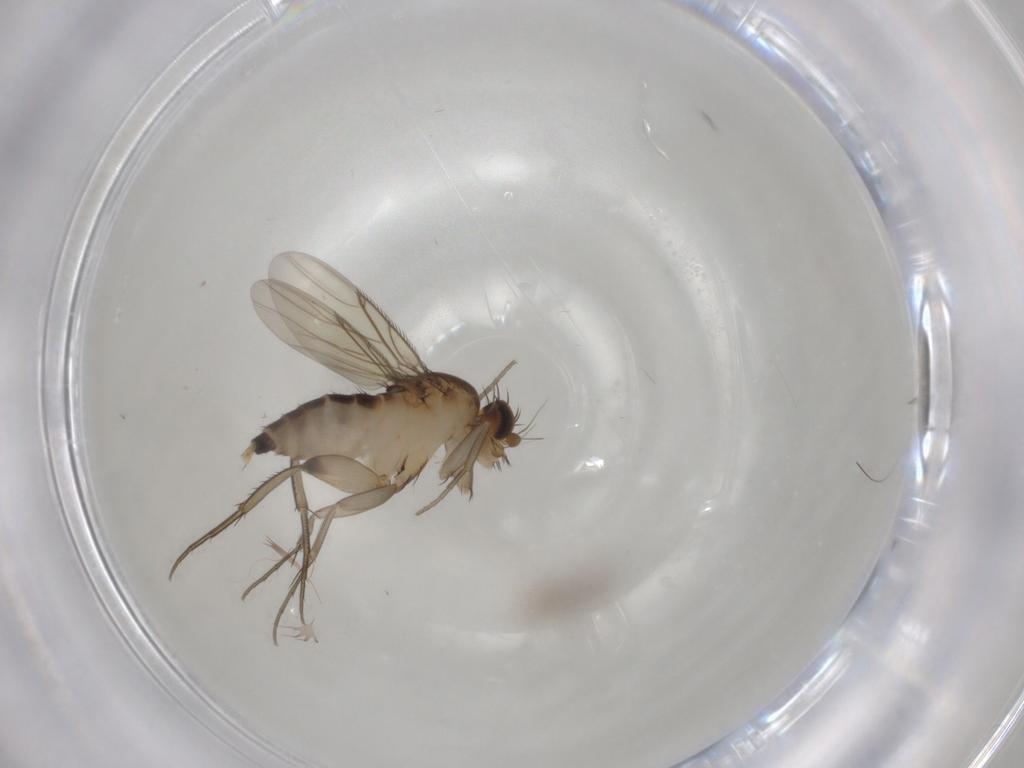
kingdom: Animalia
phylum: Arthropoda
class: Insecta
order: Diptera
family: Phoridae
